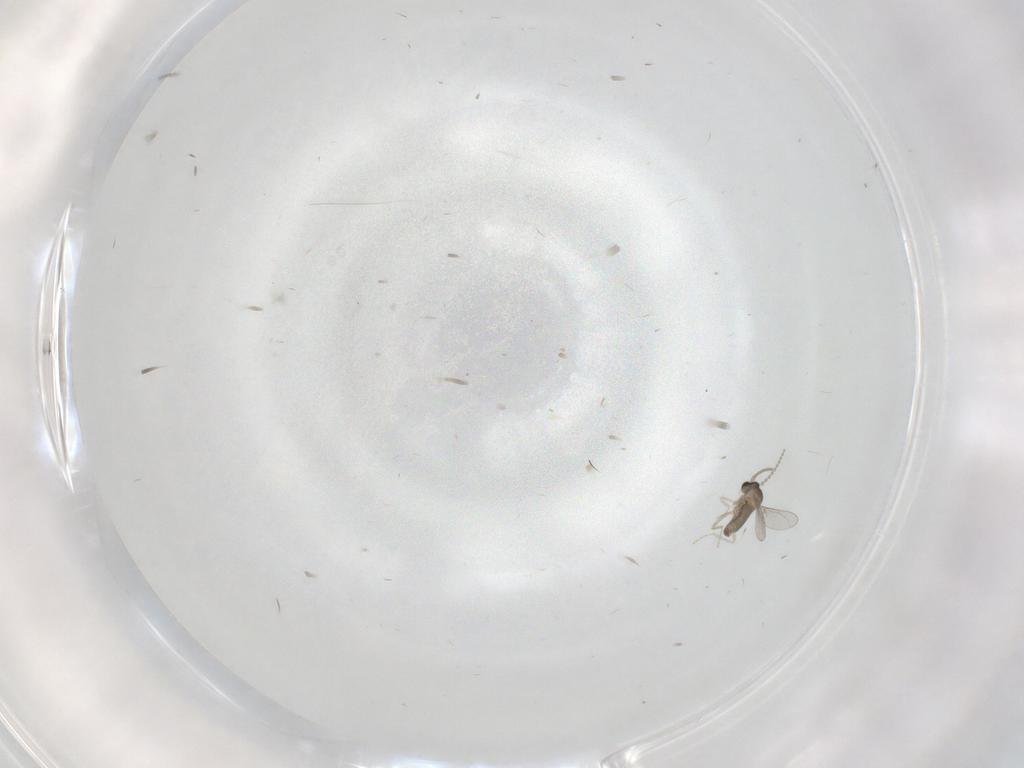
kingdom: Animalia
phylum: Arthropoda
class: Insecta
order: Diptera
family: Psychodidae
